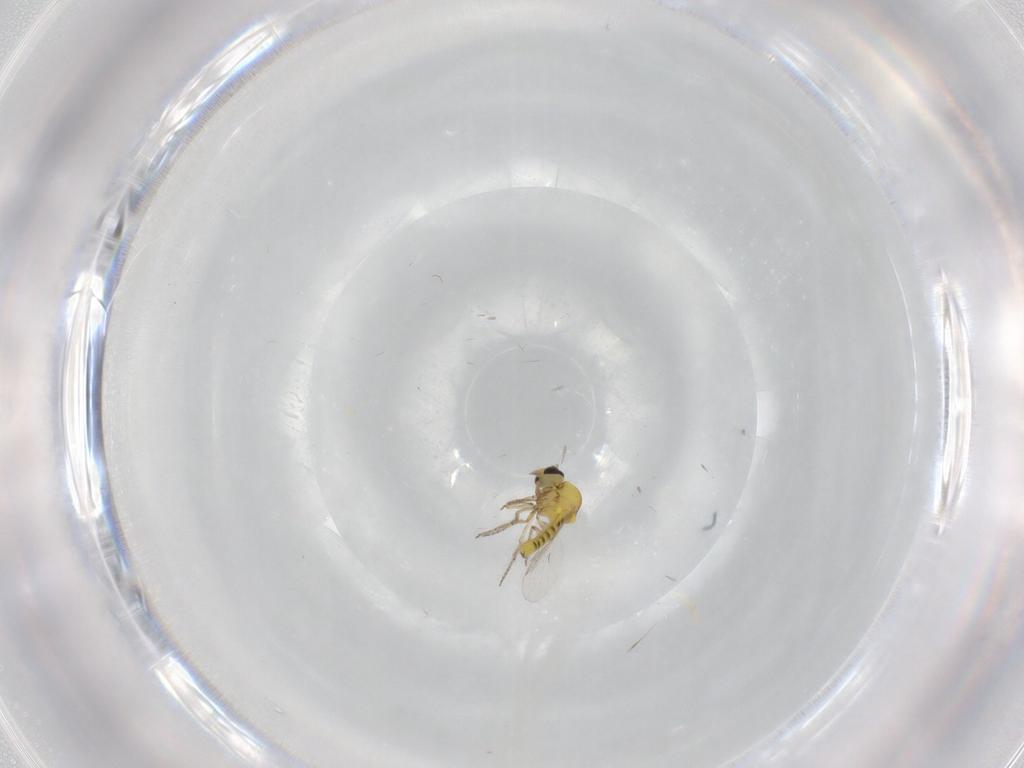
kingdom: Animalia
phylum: Arthropoda
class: Insecta
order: Diptera
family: Ceratopogonidae
